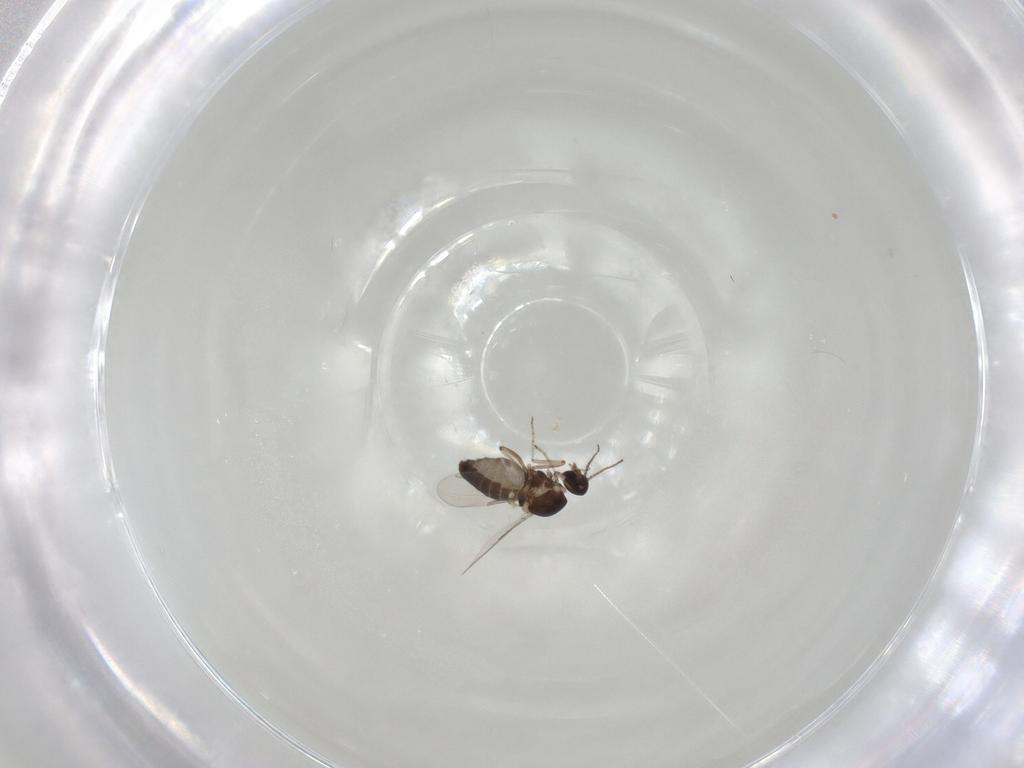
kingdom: Animalia
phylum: Arthropoda
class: Insecta
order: Diptera
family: Ceratopogonidae
